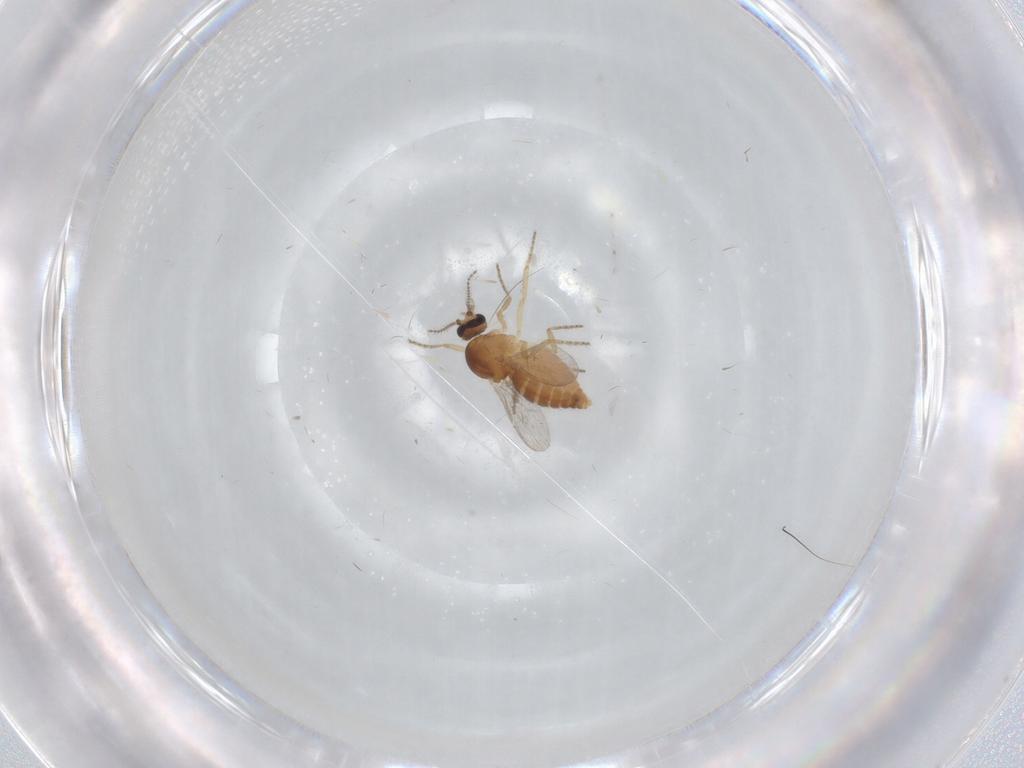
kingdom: Animalia
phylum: Arthropoda
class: Insecta
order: Diptera
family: Ceratopogonidae
